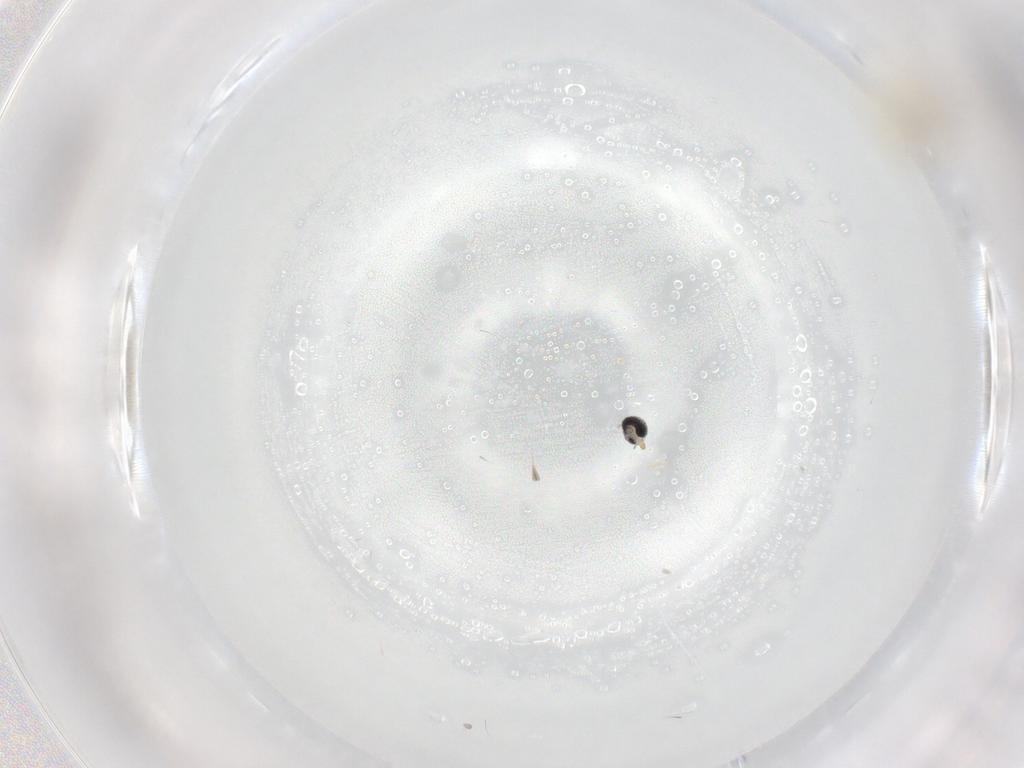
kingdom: Animalia
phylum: Arthropoda
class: Insecta
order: Diptera
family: Cecidomyiidae
